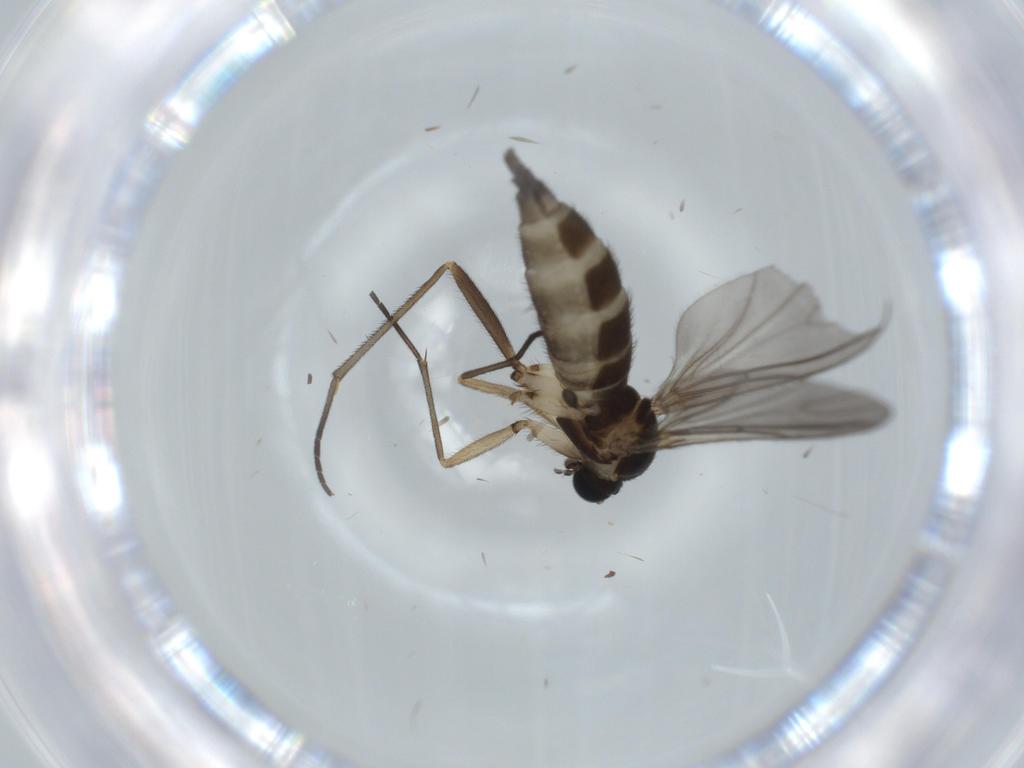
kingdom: Animalia
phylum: Arthropoda
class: Insecta
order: Diptera
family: Sciaridae
